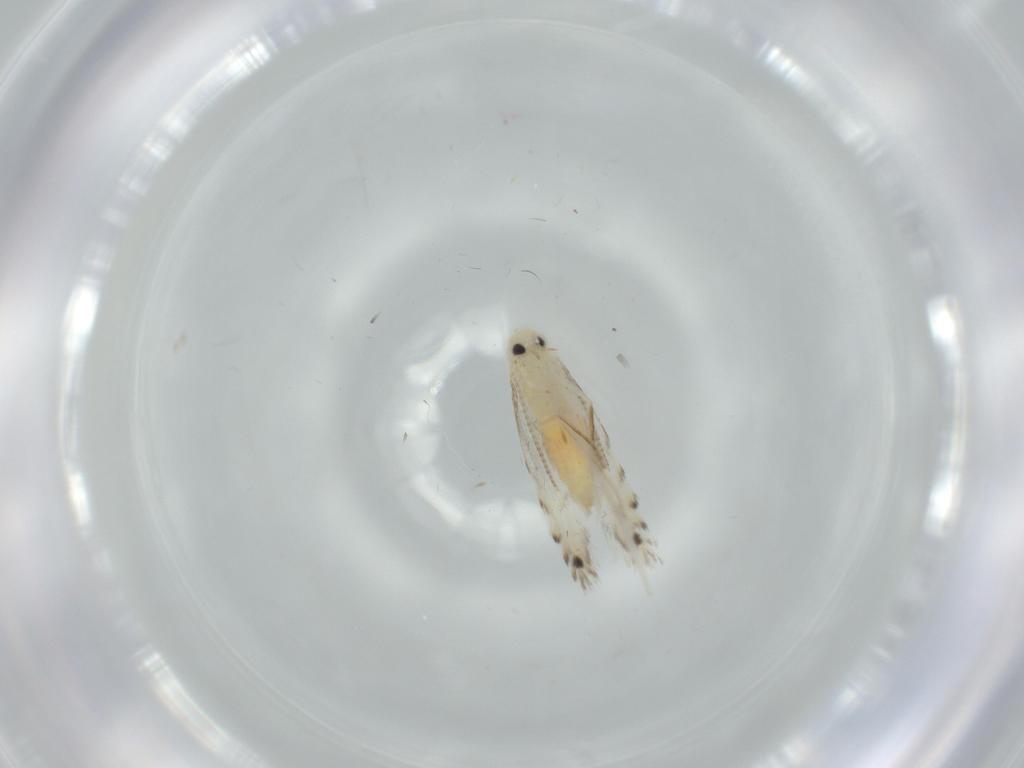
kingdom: Animalia
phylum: Arthropoda
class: Insecta
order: Lepidoptera
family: Gracillariidae
